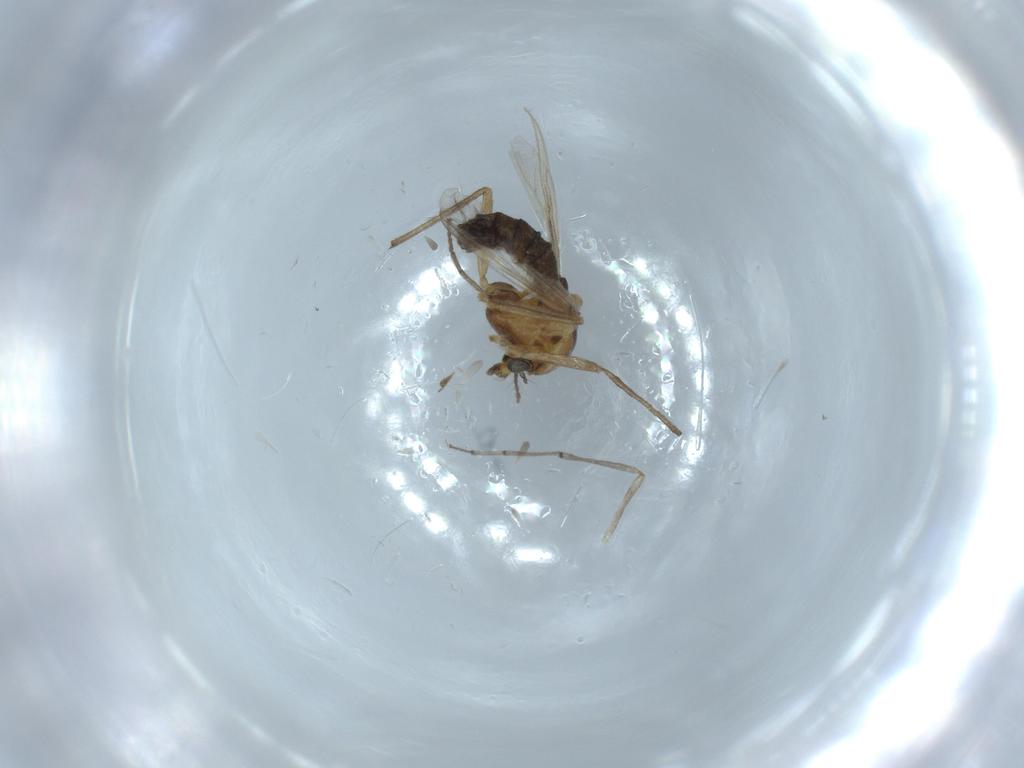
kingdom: Animalia
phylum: Arthropoda
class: Insecta
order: Diptera
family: Chironomidae
